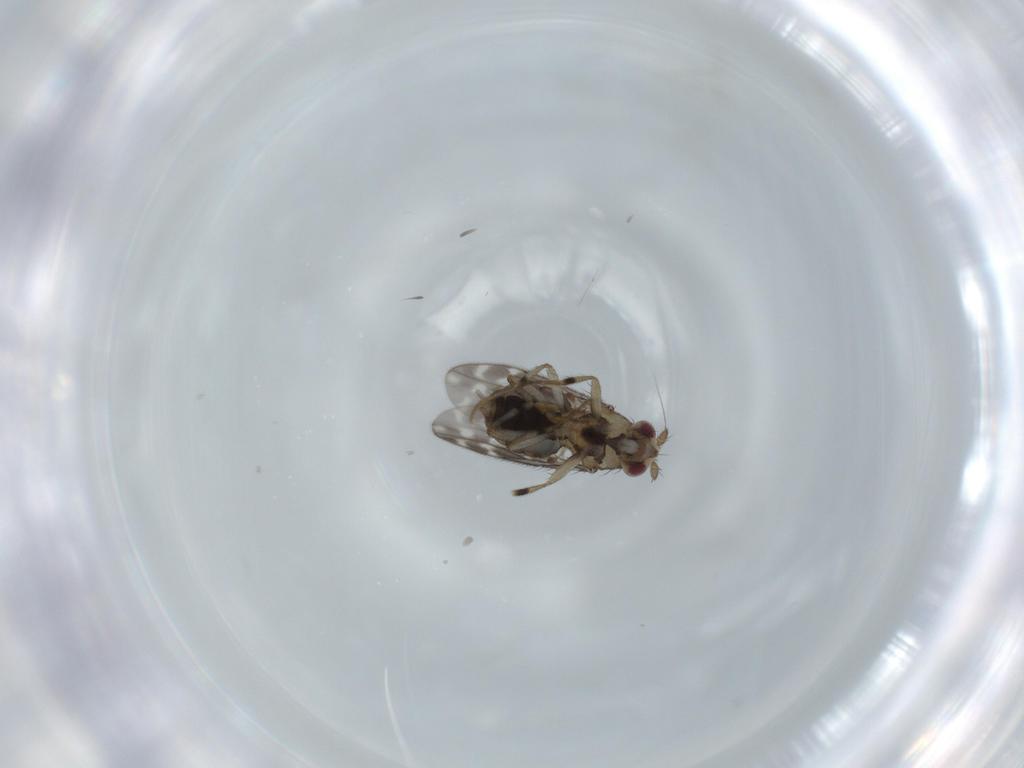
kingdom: Animalia
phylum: Arthropoda
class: Insecta
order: Diptera
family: Sphaeroceridae
